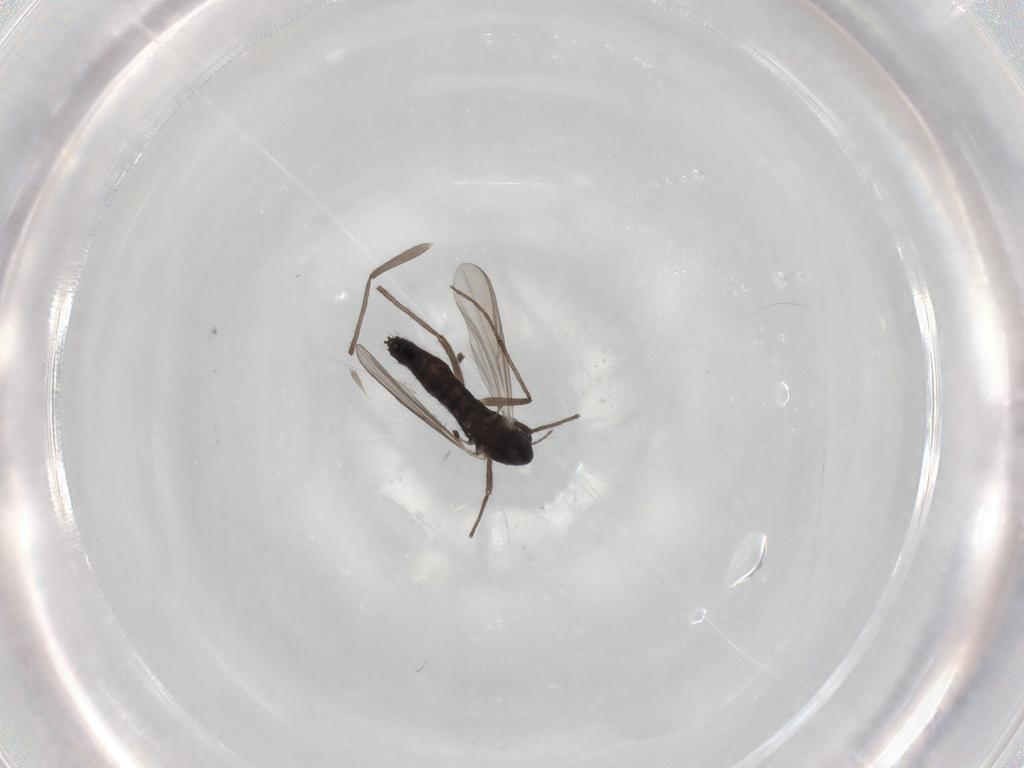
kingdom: Animalia
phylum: Arthropoda
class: Insecta
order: Diptera
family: Chironomidae
